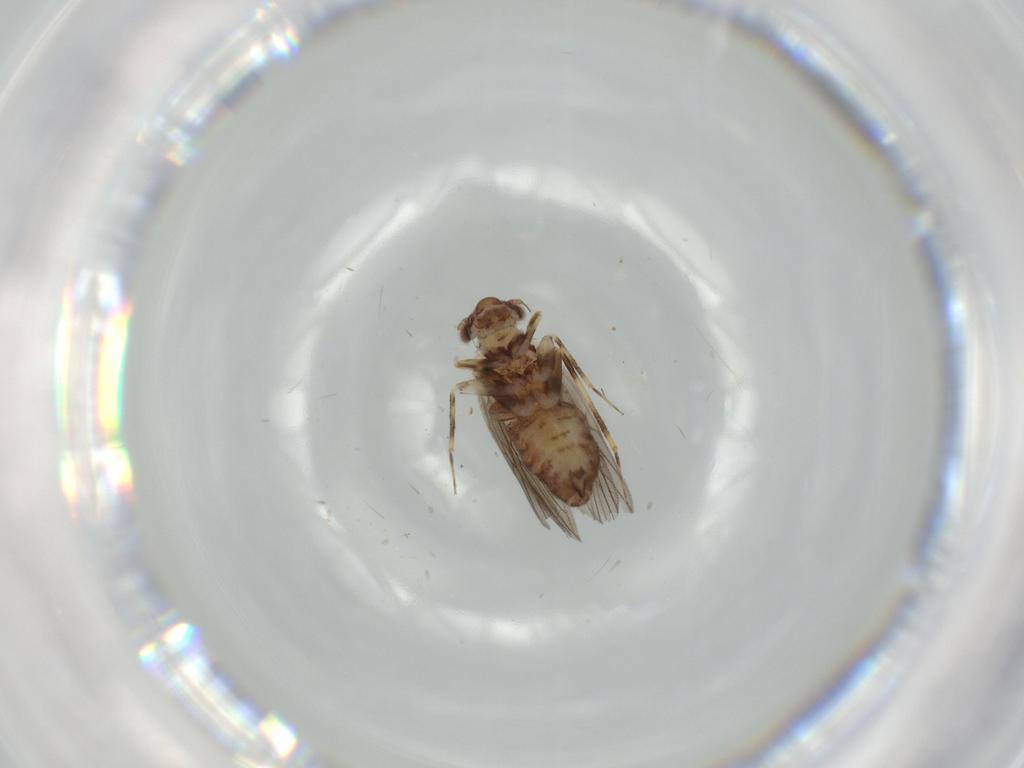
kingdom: Animalia
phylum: Arthropoda
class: Insecta
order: Psocodea
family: Lepidopsocidae
